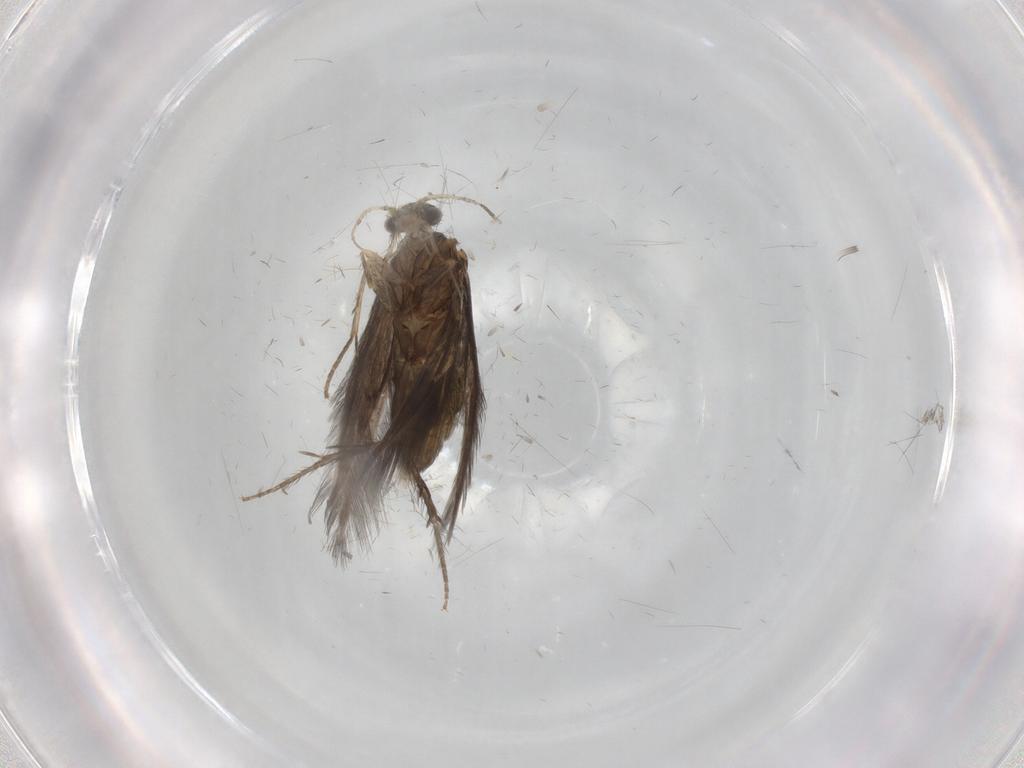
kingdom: Animalia
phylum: Arthropoda
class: Insecta
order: Trichoptera
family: Hydroptilidae
